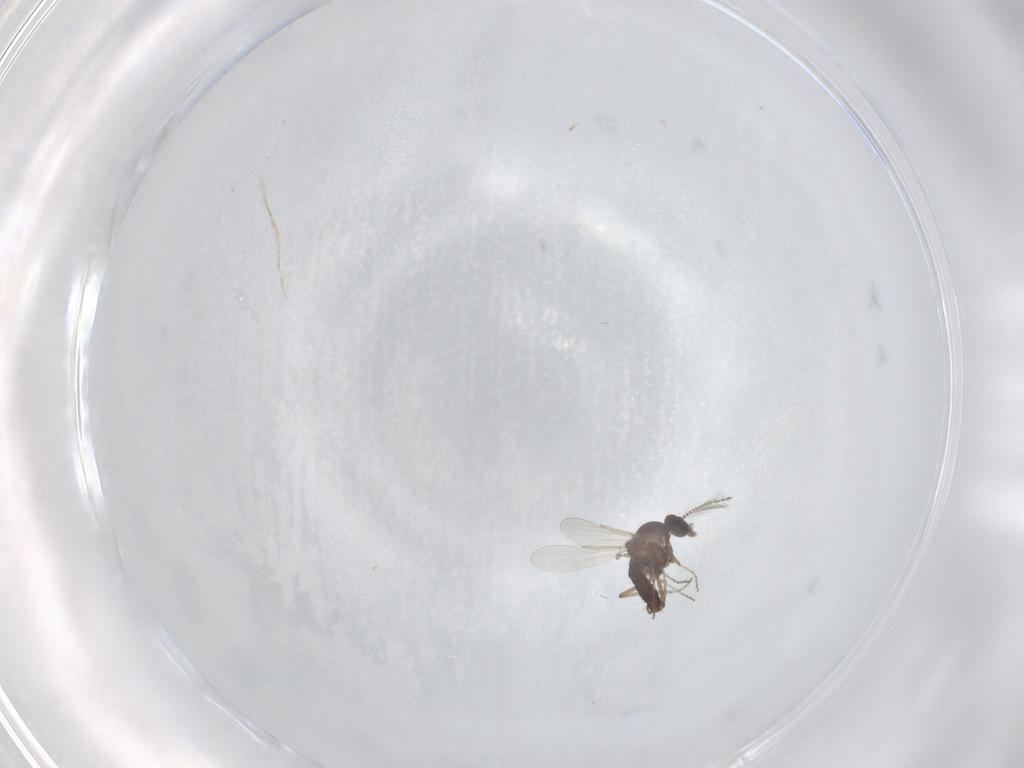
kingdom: Animalia
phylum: Arthropoda
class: Insecta
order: Diptera
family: Ceratopogonidae
